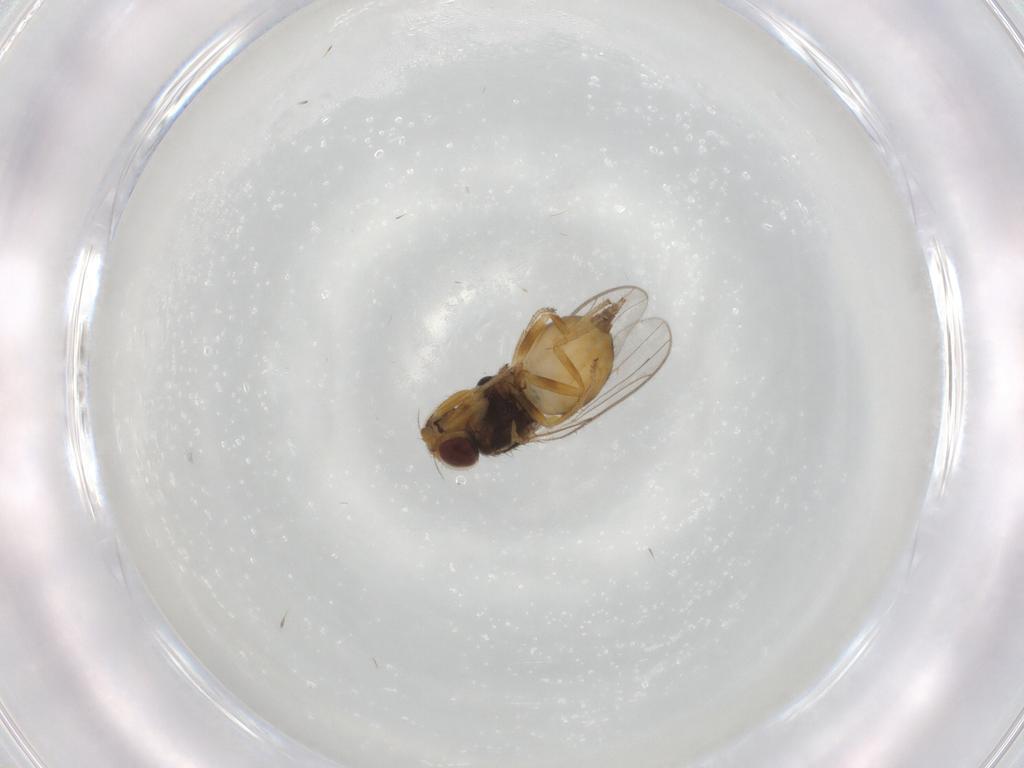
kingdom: Animalia
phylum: Arthropoda
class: Insecta
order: Diptera
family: Chloropidae
